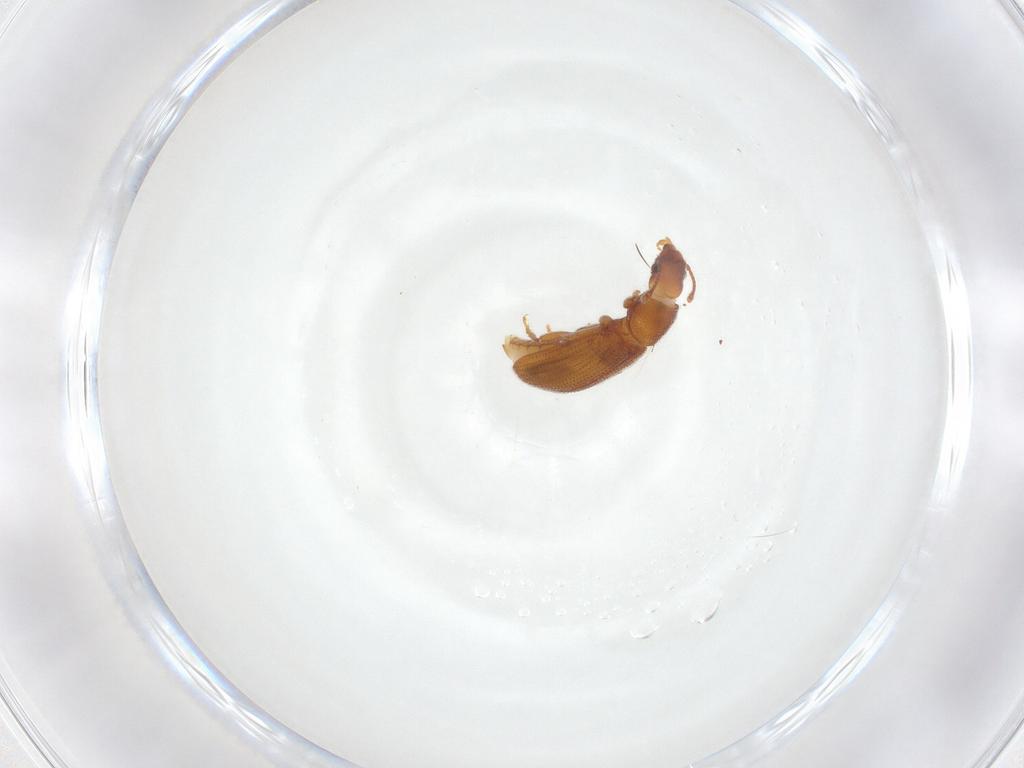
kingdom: Animalia
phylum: Arthropoda
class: Insecta
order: Coleoptera
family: Mycetophagidae
